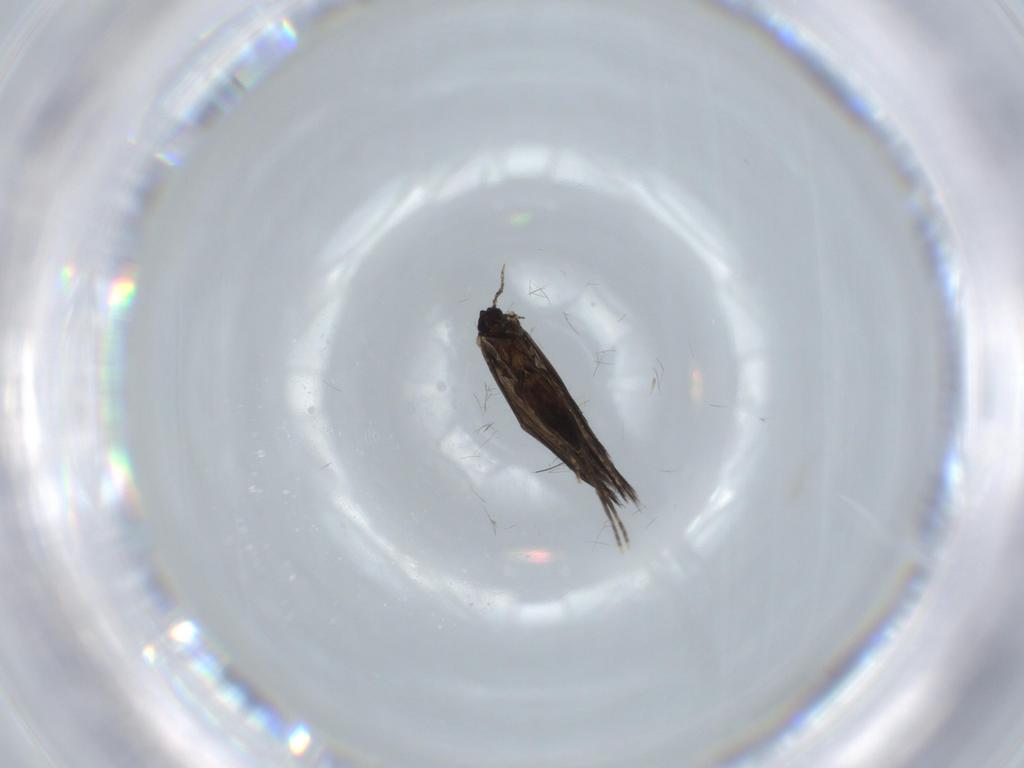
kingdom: Animalia
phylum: Arthropoda
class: Insecta
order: Trichoptera
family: Hydroptilidae
